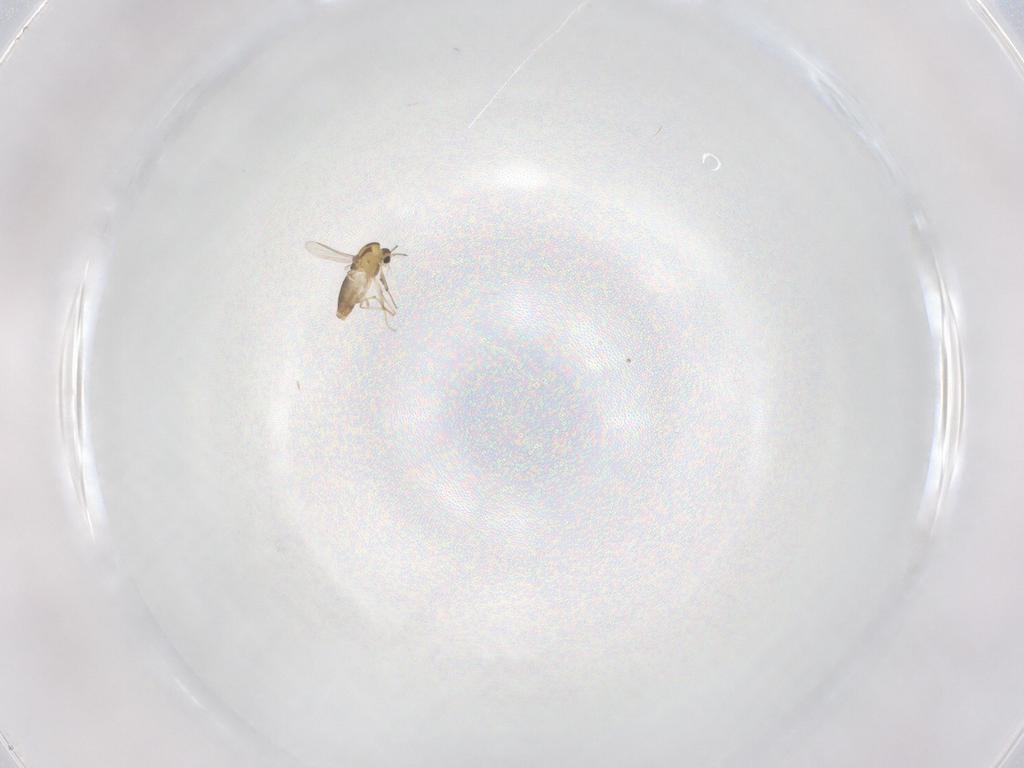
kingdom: Animalia
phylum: Arthropoda
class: Insecta
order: Diptera
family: Chironomidae
